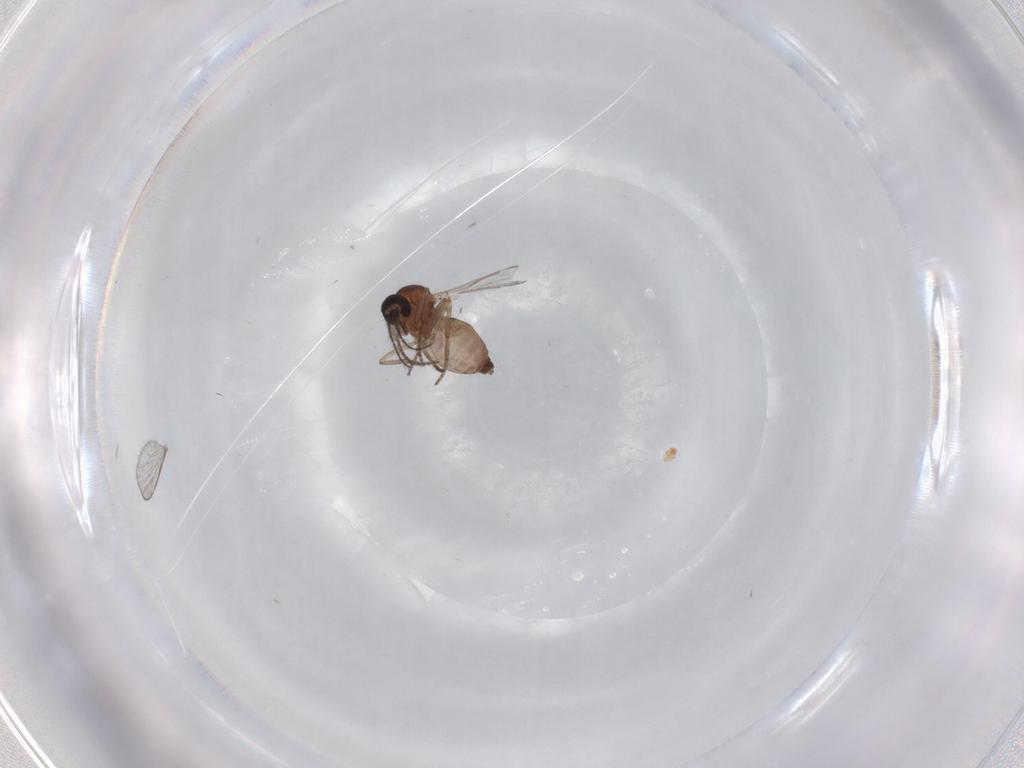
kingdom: Animalia
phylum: Arthropoda
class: Insecta
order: Diptera
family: Ceratopogonidae
